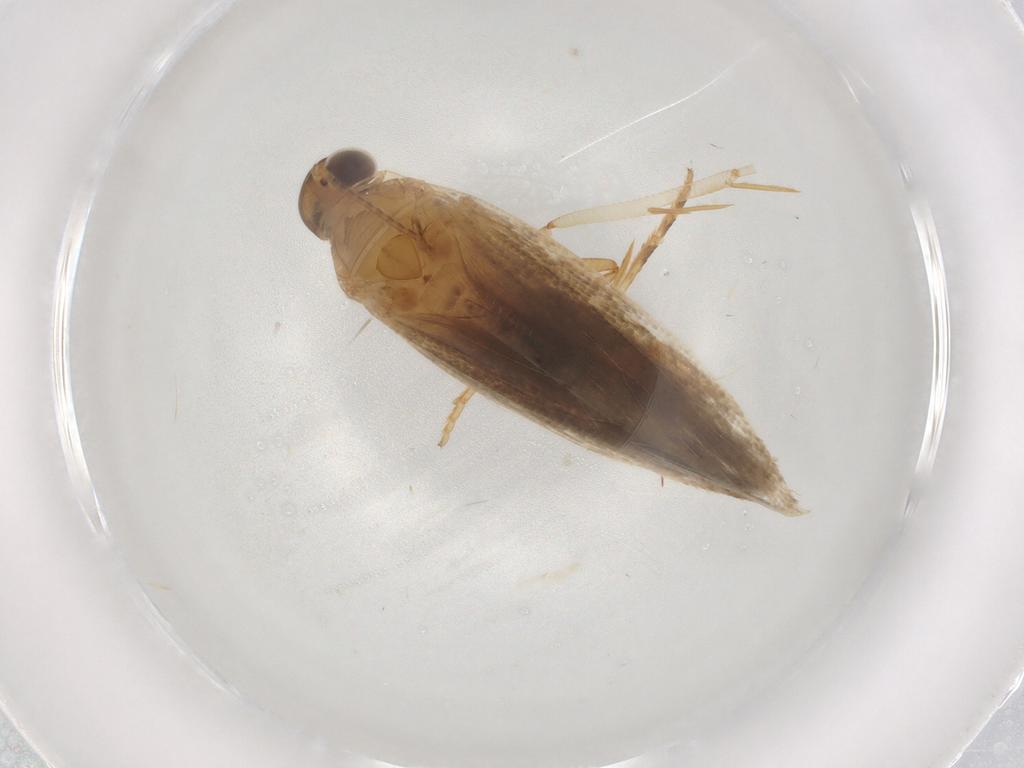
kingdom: Animalia
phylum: Arthropoda
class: Insecta
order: Lepidoptera
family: Gelechiidae
